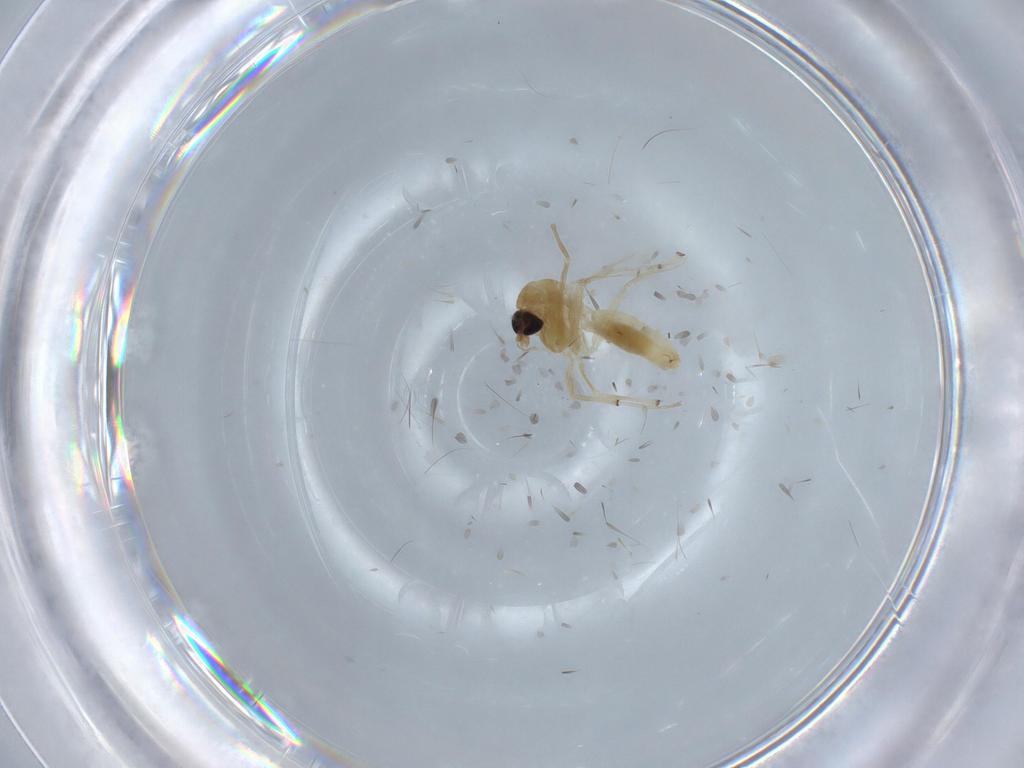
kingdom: Animalia
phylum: Arthropoda
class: Insecta
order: Diptera
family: Chironomidae
